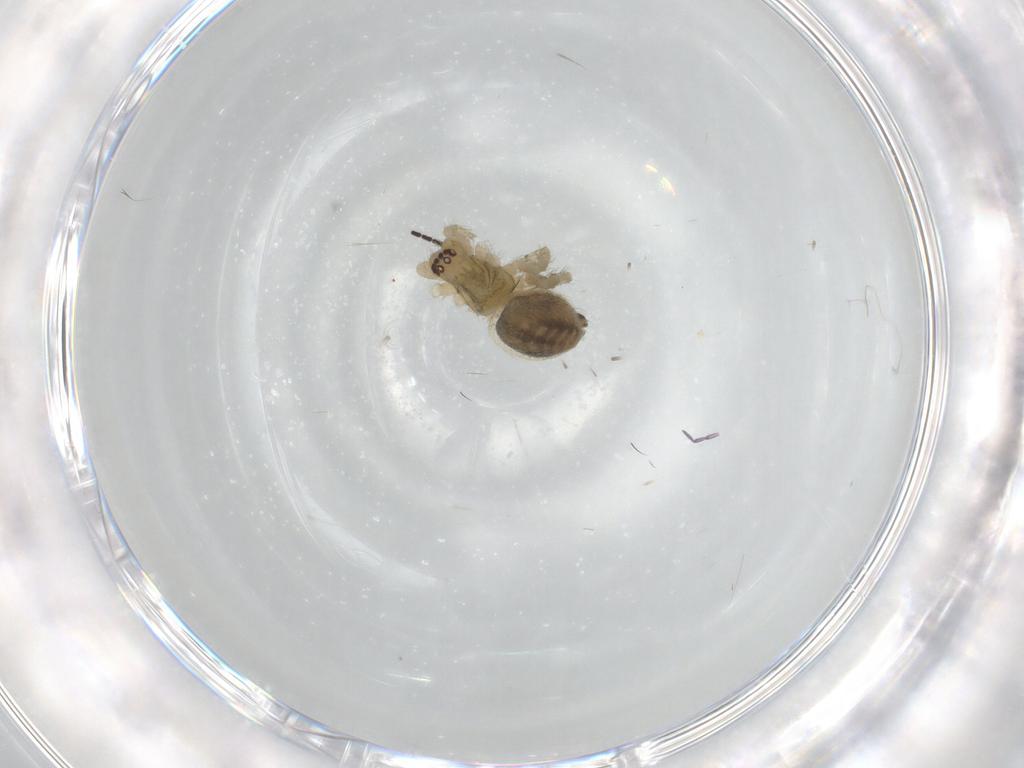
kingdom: Animalia
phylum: Arthropoda
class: Arachnida
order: Araneae
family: Corinnidae
